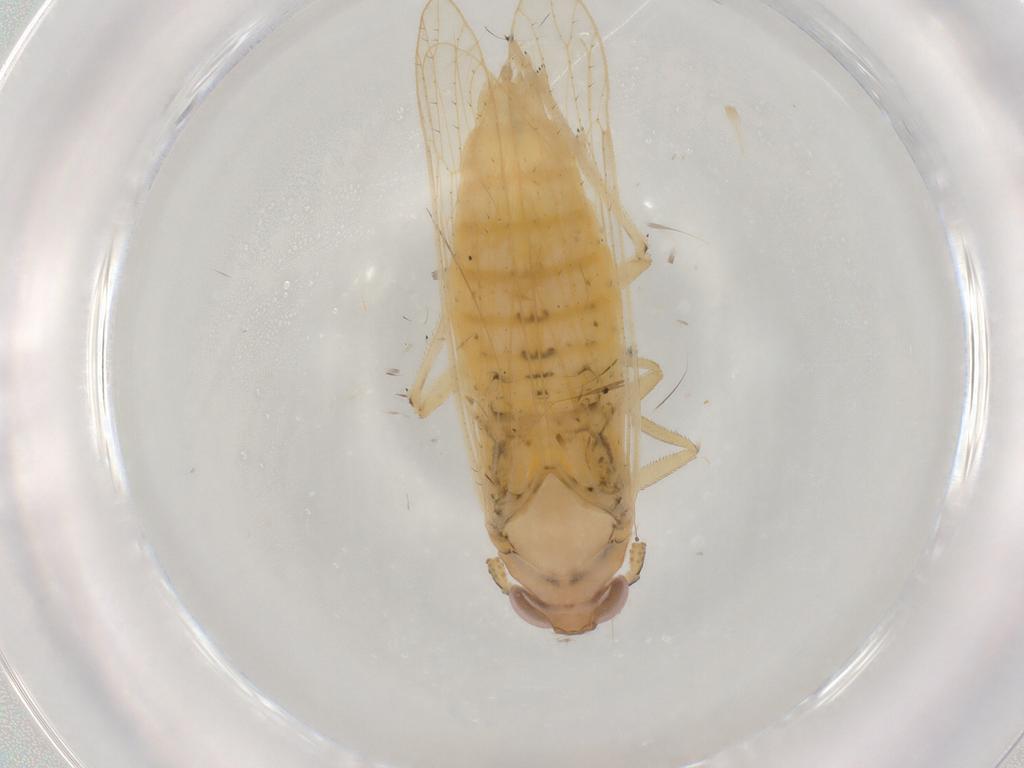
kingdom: Animalia
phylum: Arthropoda
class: Insecta
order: Hemiptera
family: Delphacidae
